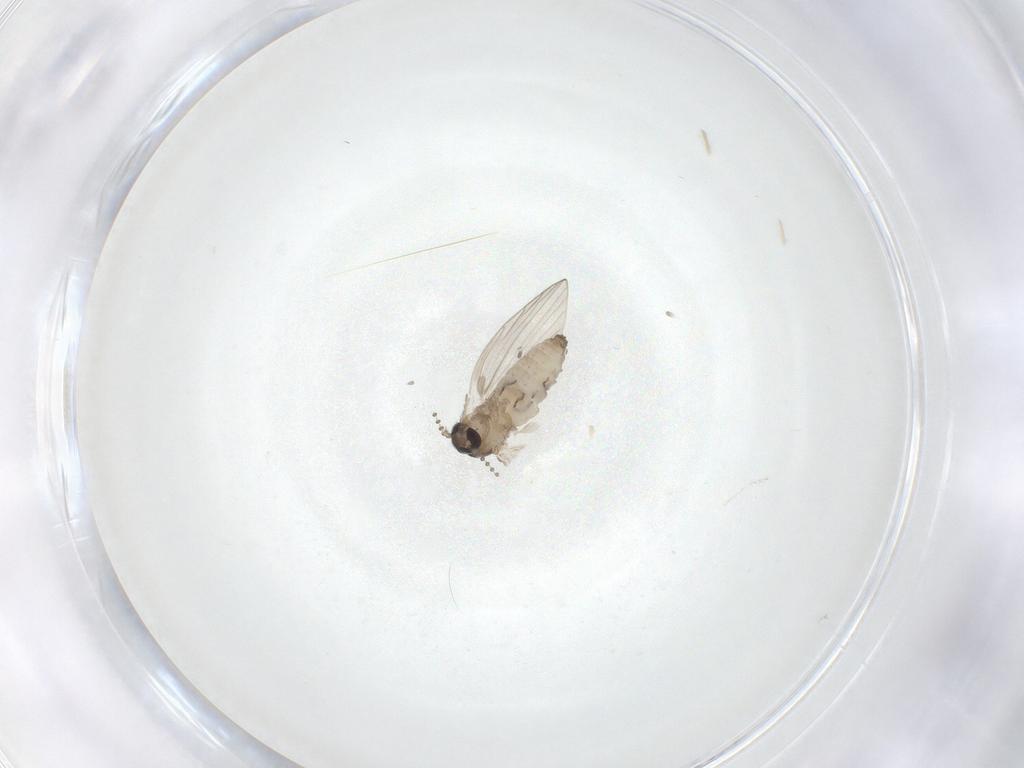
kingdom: Animalia
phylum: Arthropoda
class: Insecta
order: Diptera
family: Psychodidae
